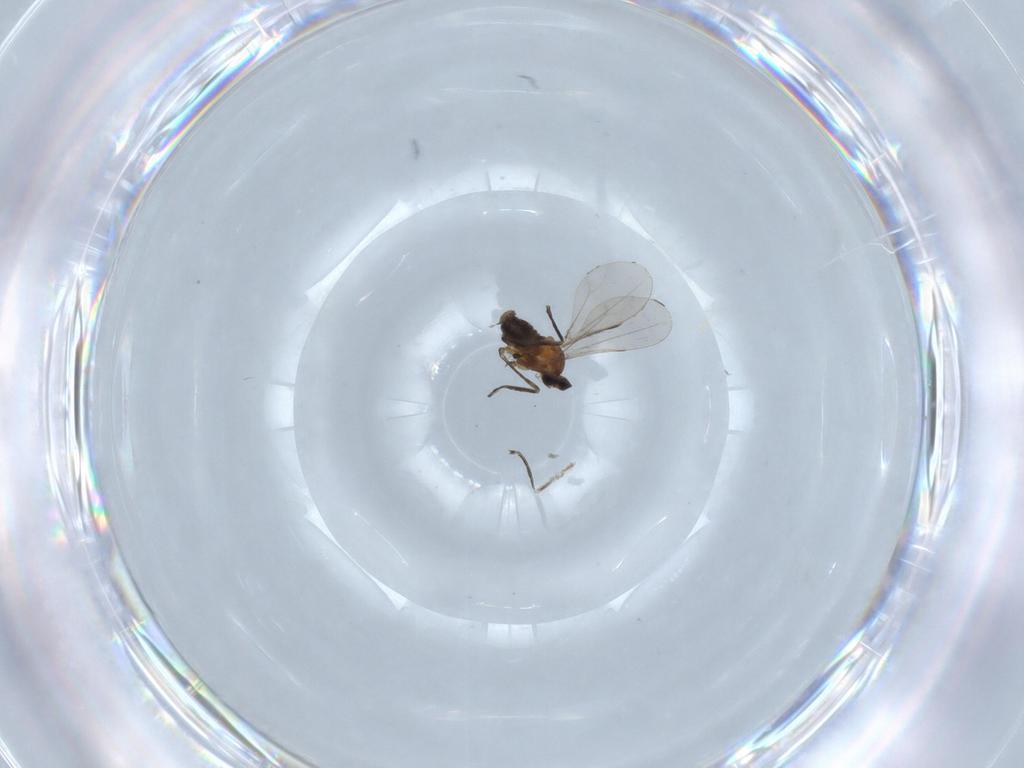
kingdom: Animalia
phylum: Arthropoda
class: Insecta
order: Diptera
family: Cecidomyiidae
